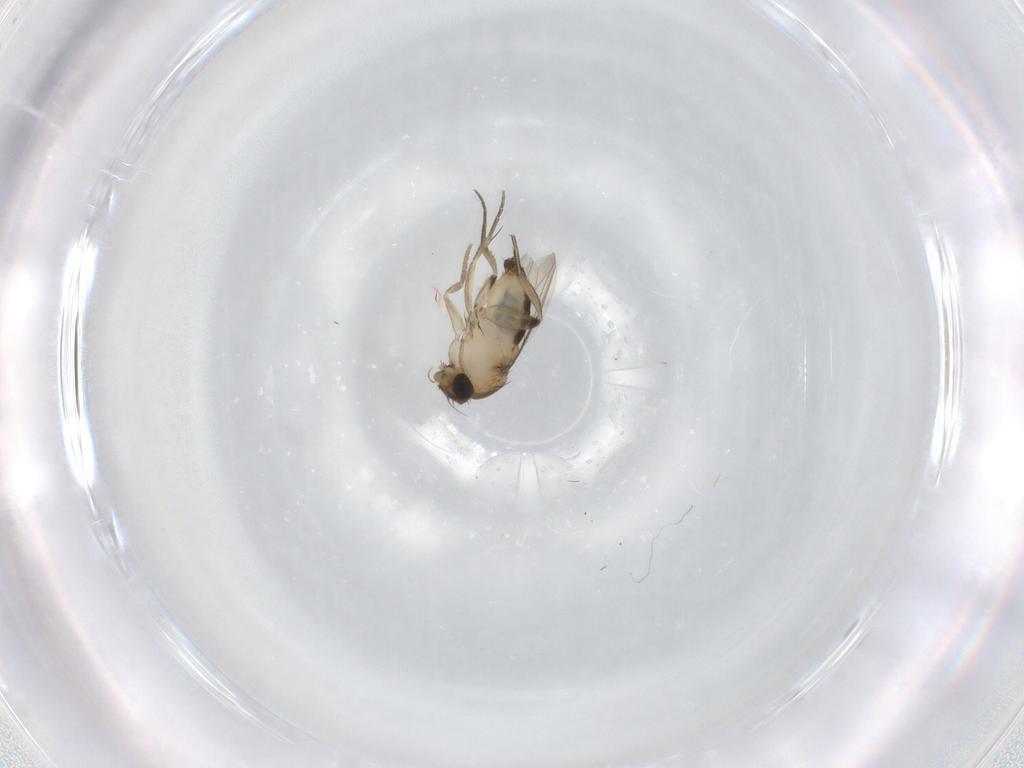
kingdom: Animalia
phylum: Arthropoda
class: Insecta
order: Diptera
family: Phoridae
